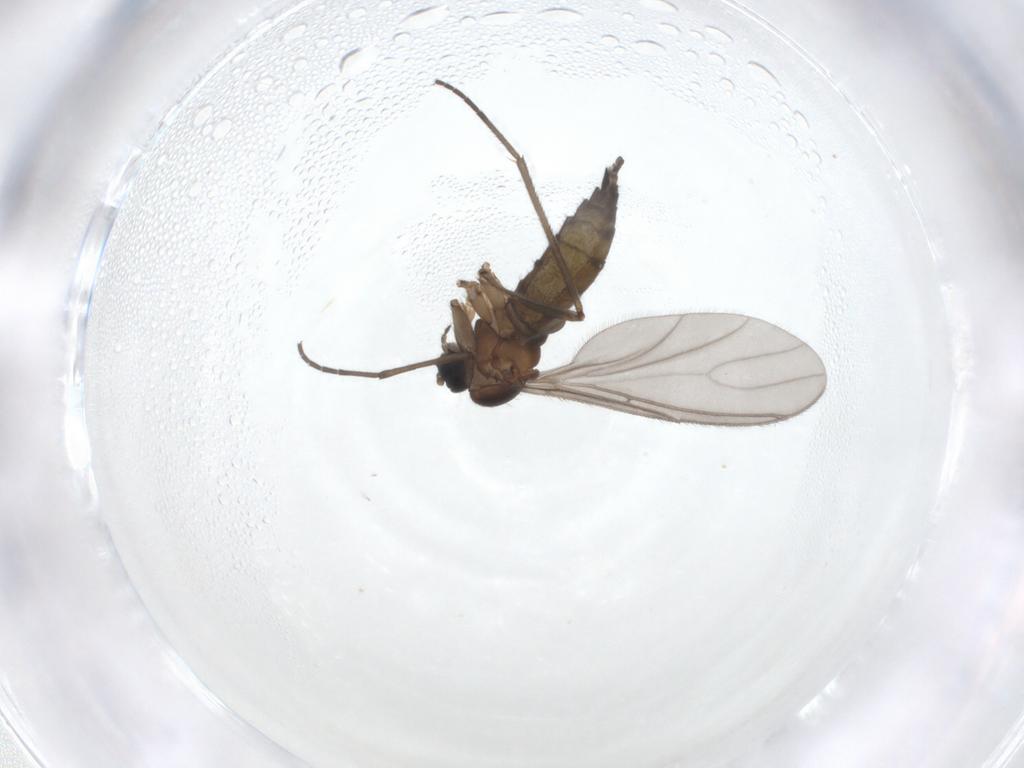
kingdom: Animalia
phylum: Arthropoda
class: Insecta
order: Diptera
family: Sciaridae
